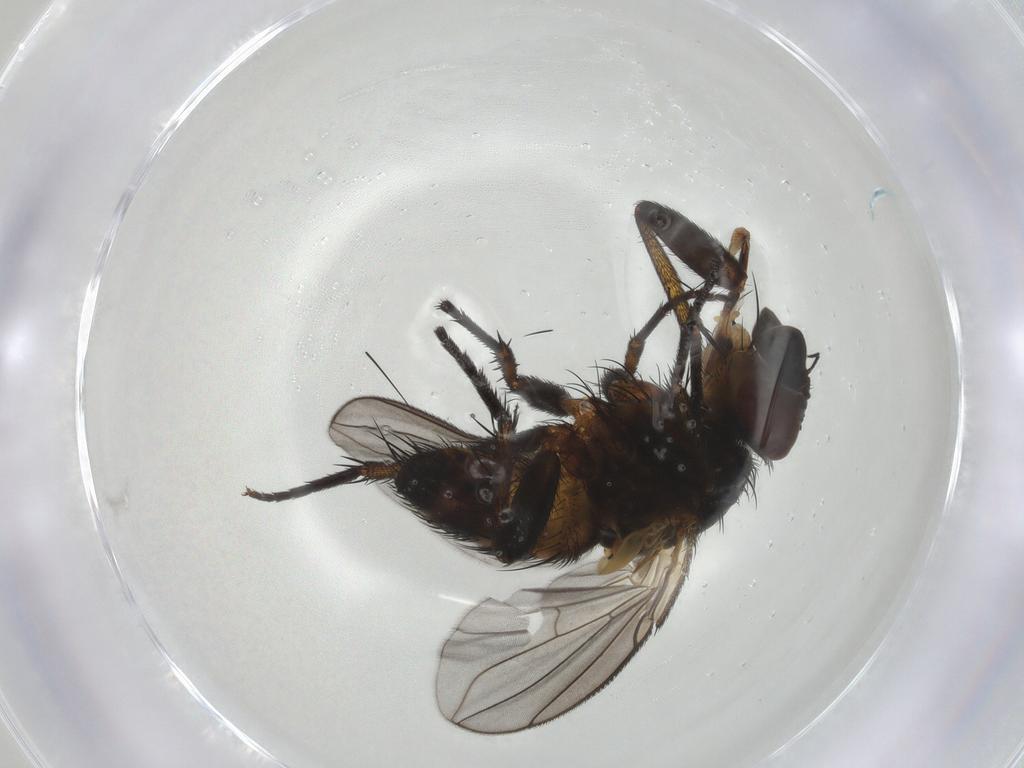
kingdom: Animalia
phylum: Arthropoda
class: Insecta
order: Diptera
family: Tachinidae
